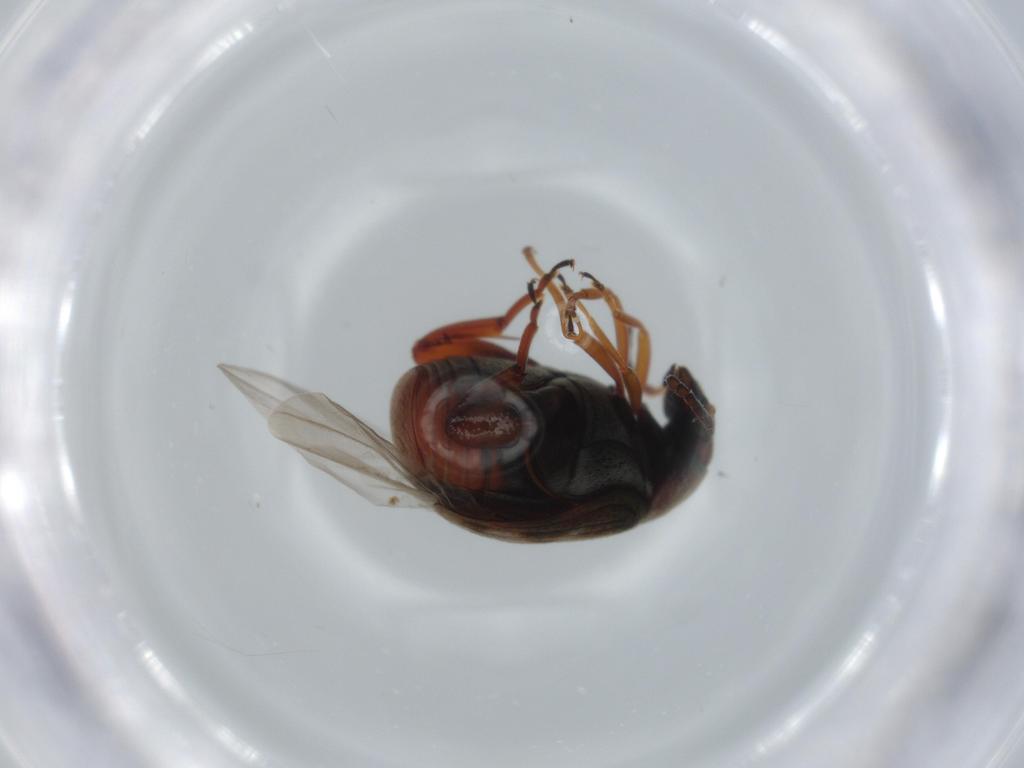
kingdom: Animalia
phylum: Arthropoda
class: Insecta
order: Coleoptera
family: Chrysomelidae
